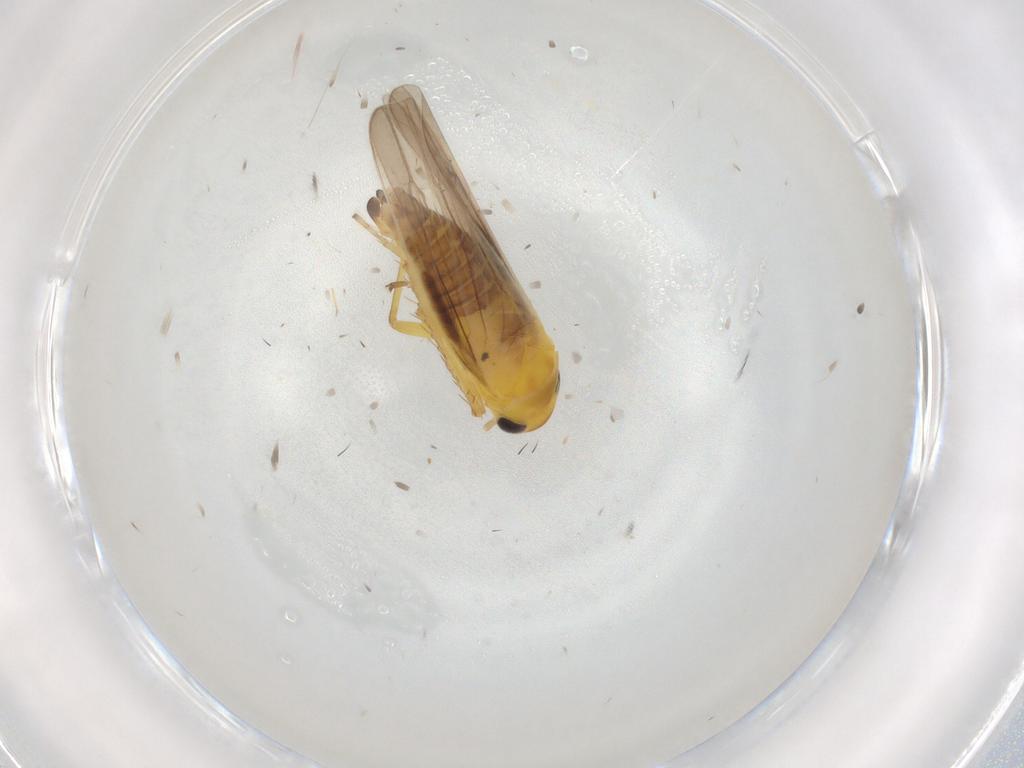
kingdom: Animalia
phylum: Arthropoda
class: Insecta
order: Hemiptera
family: Cicadellidae
